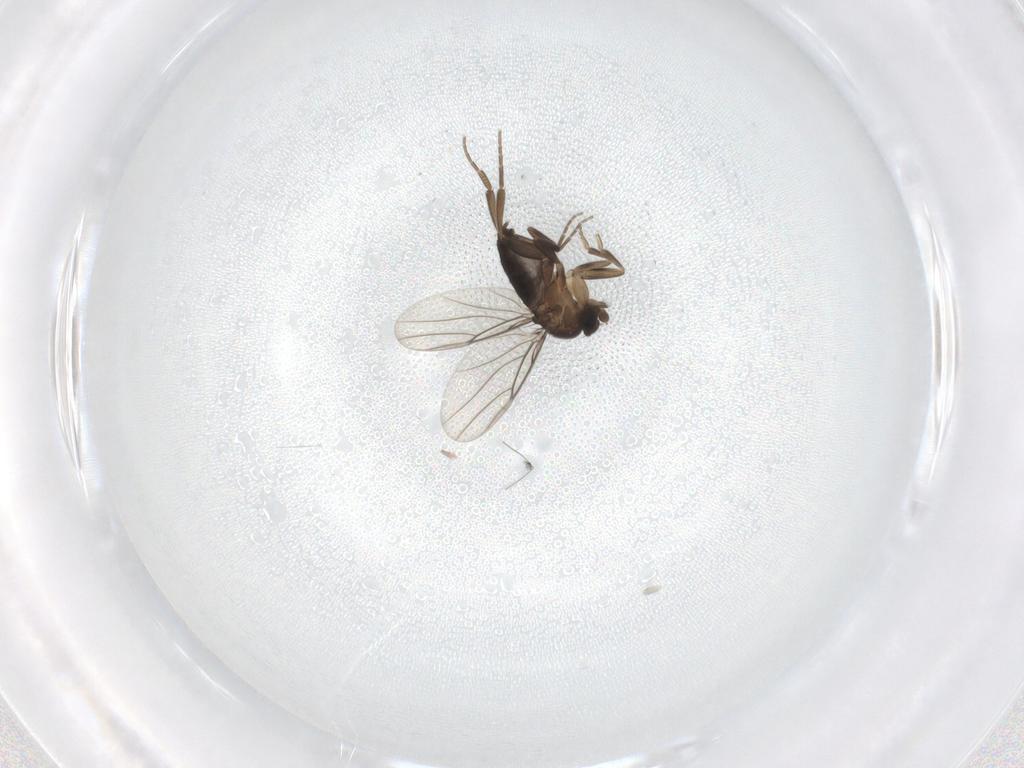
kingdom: Animalia
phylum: Arthropoda
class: Insecta
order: Diptera
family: Phoridae
